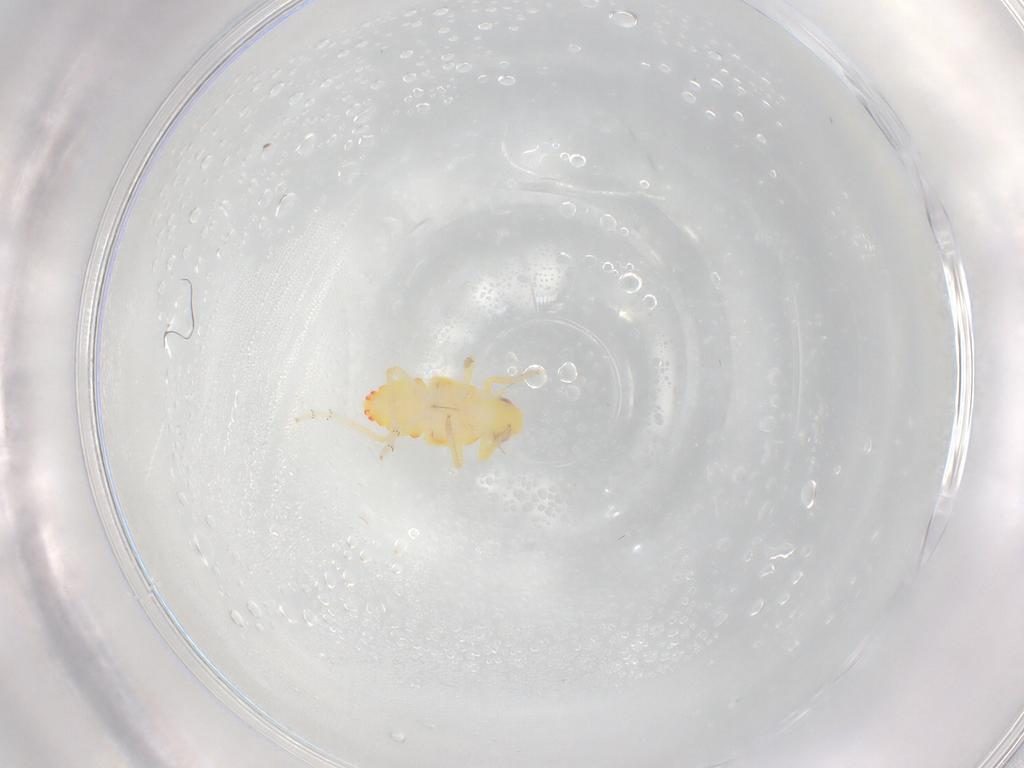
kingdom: Animalia
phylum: Arthropoda
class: Insecta
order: Hemiptera
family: Tropiduchidae
